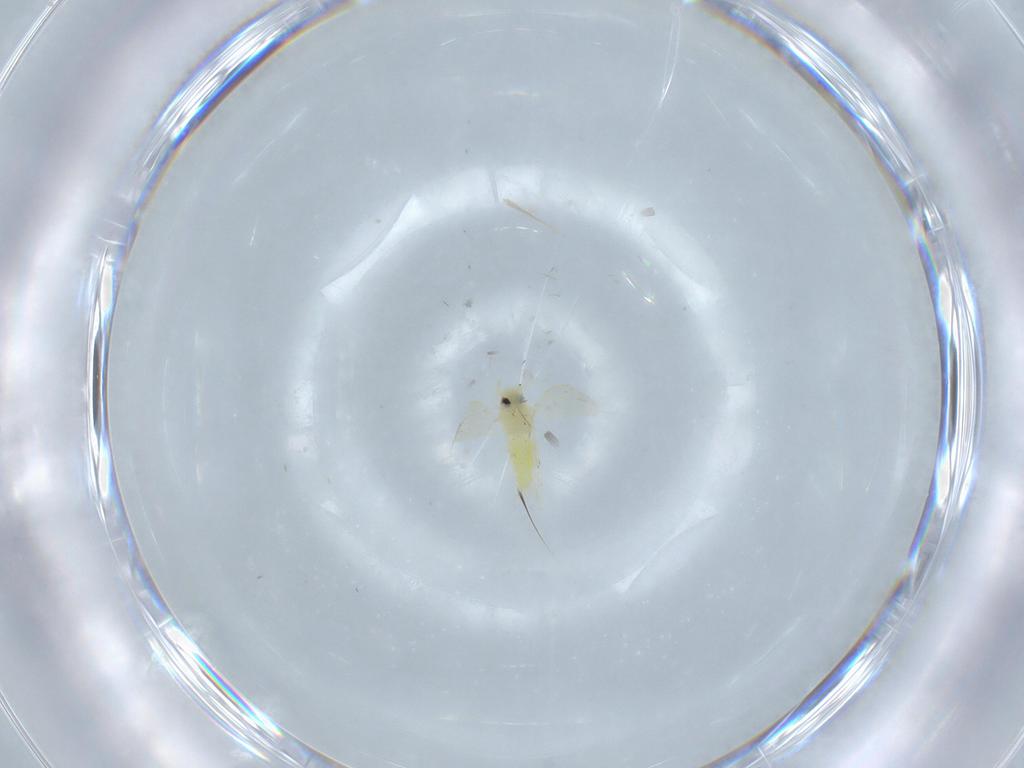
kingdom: Animalia
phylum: Arthropoda
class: Insecta
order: Hemiptera
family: Aleyrodidae
